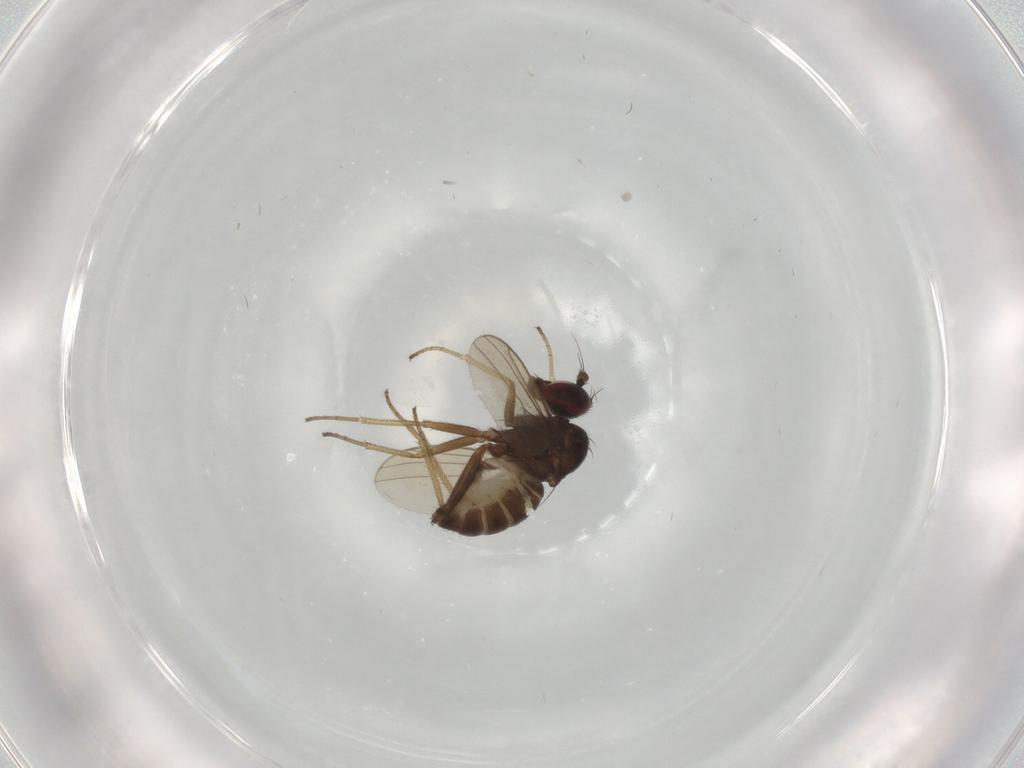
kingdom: Animalia
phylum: Arthropoda
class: Insecta
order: Diptera
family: Dolichopodidae
